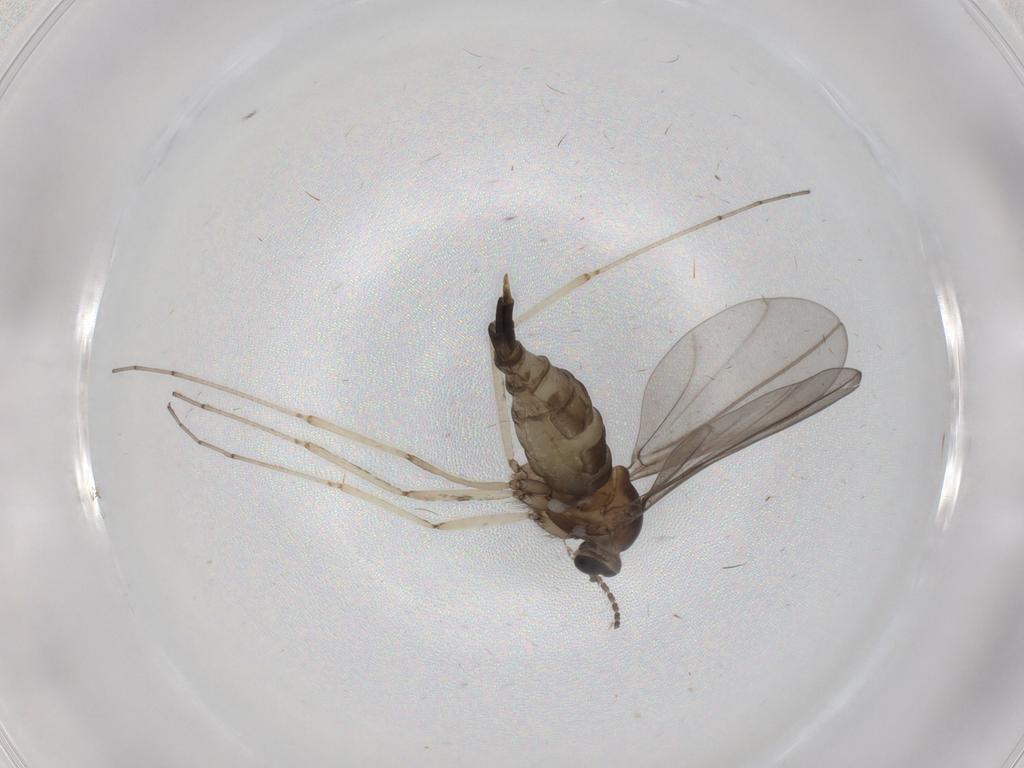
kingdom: Animalia
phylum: Arthropoda
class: Insecta
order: Diptera
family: Cecidomyiidae
